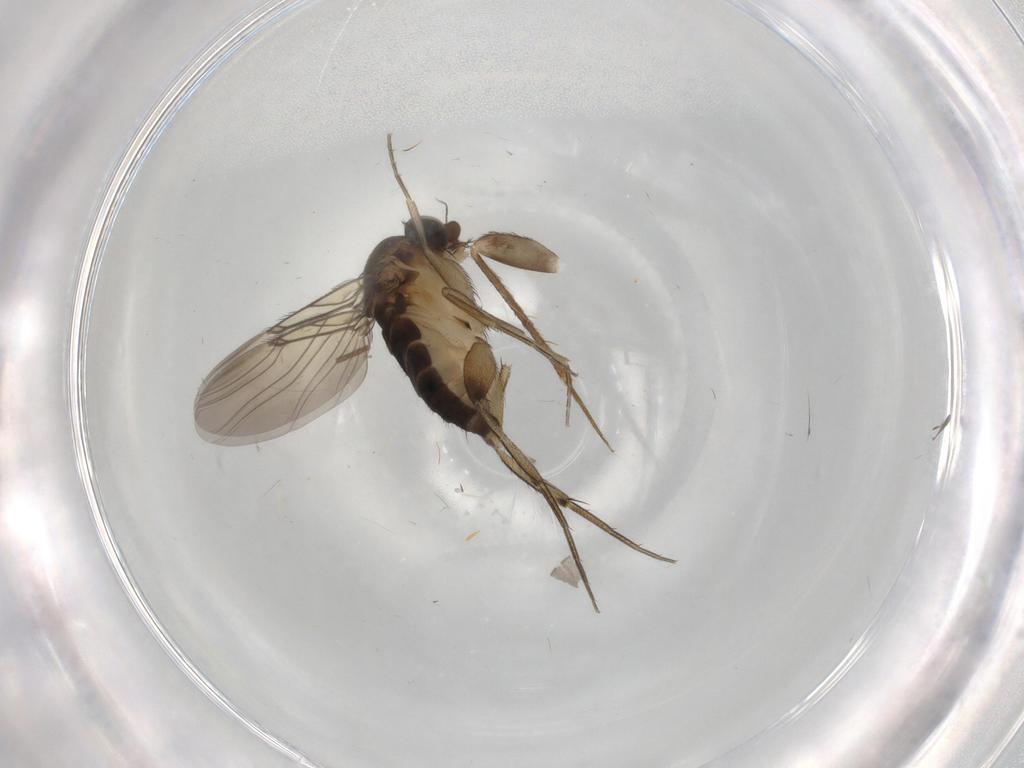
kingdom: Animalia
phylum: Arthropoda
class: Insecta
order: Diptera
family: Phoridae
